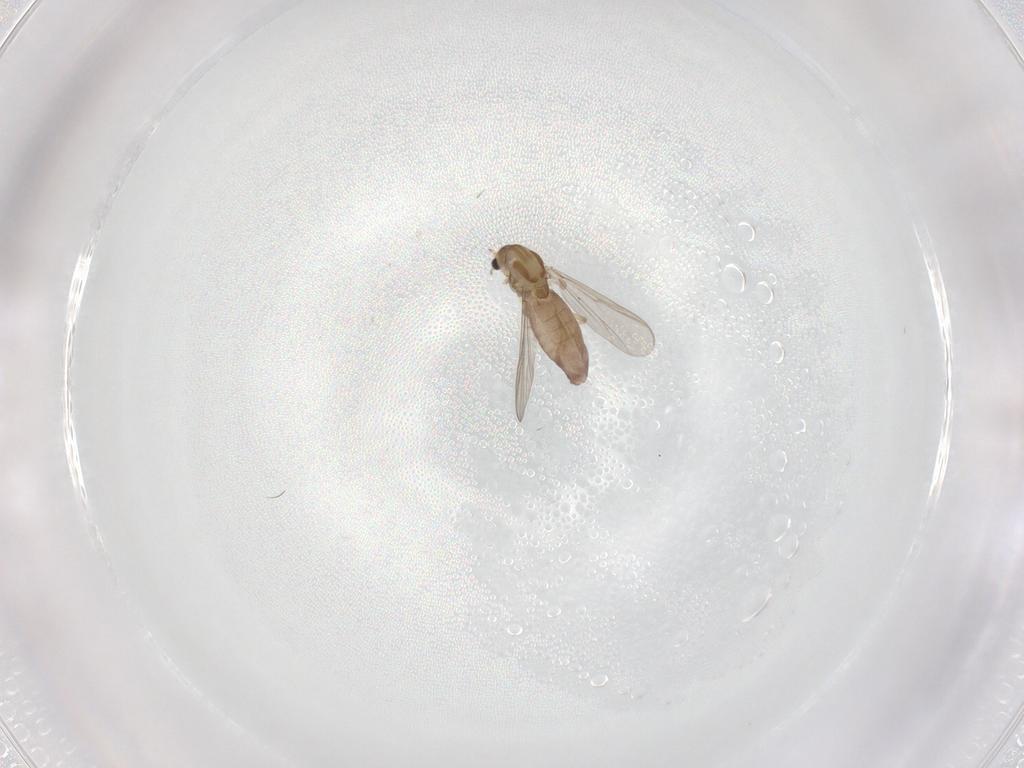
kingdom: Animalia
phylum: Arthropoda
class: Insecta
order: Diptera
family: Chironomidae
